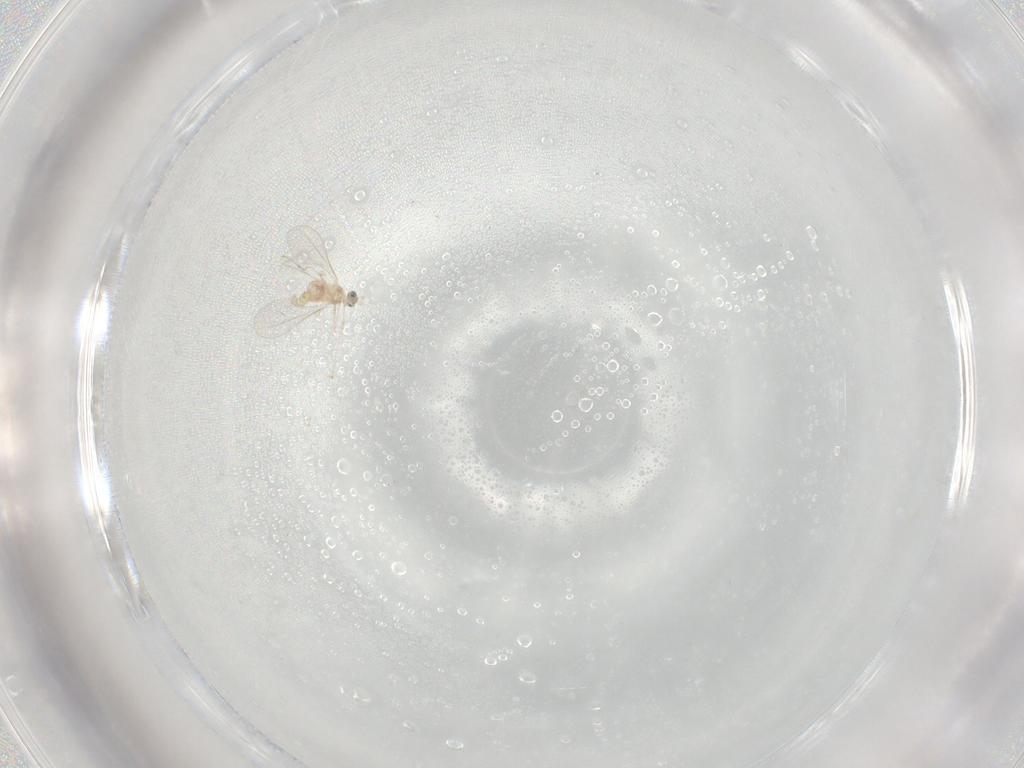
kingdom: Animalia
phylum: Arthropoda
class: Insecta
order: Diptera
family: Cecidomyiidae
